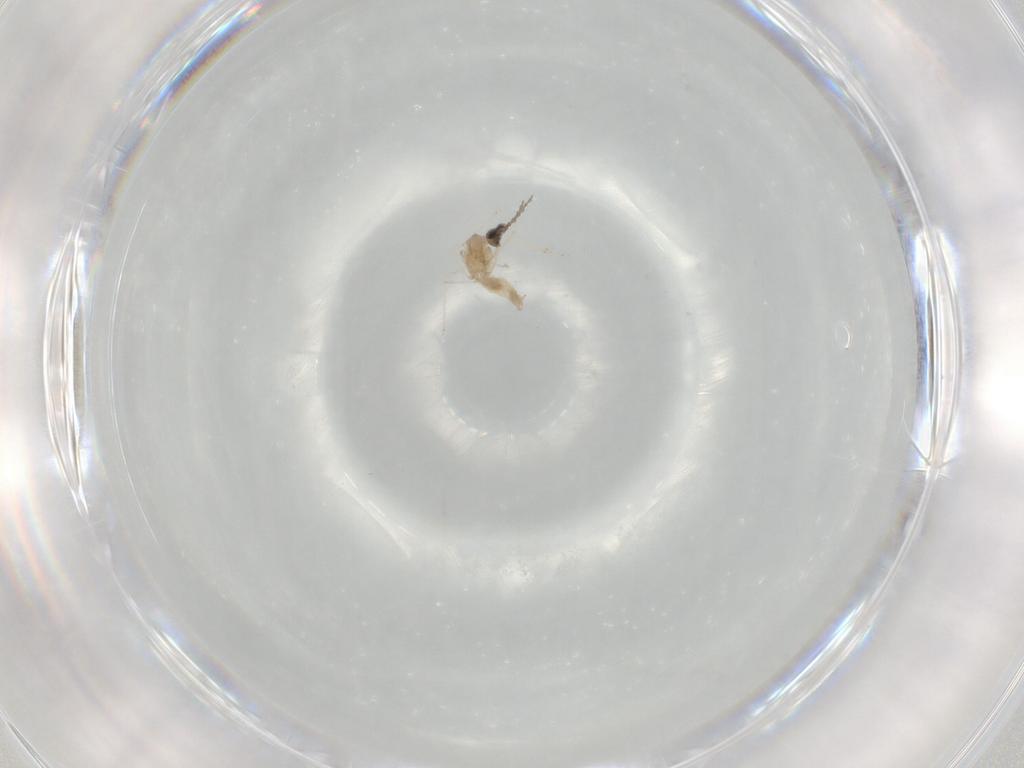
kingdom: Animalia
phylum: Arthropoda
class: Insecta
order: Diptera
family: Cecidomyiidae
